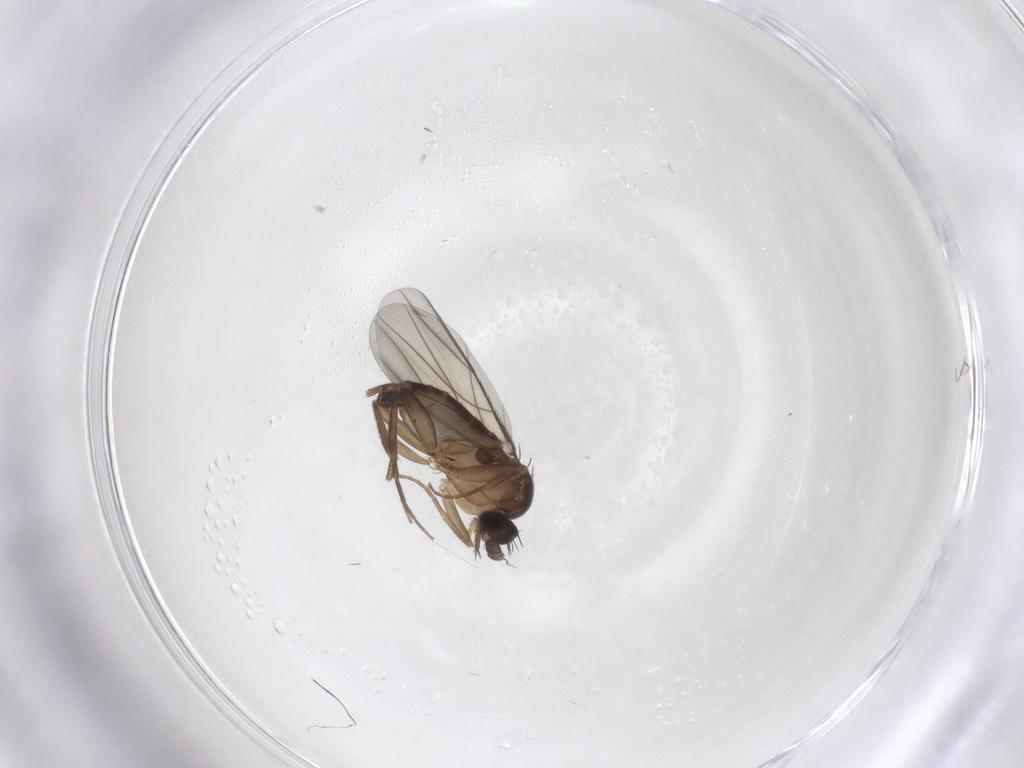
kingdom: Animalia
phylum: Arthropoda
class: Insecta
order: Diptera
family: Phoridae
